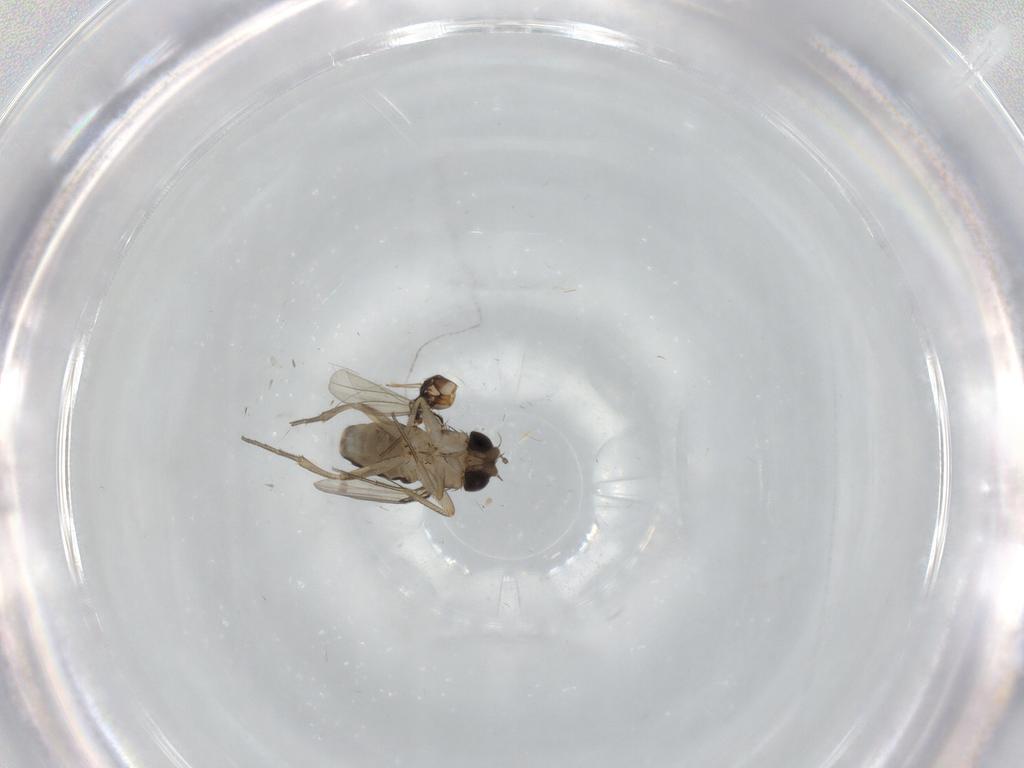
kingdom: Animalia
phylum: Arthropoda
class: Insecta
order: Diptera
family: Phoridae
